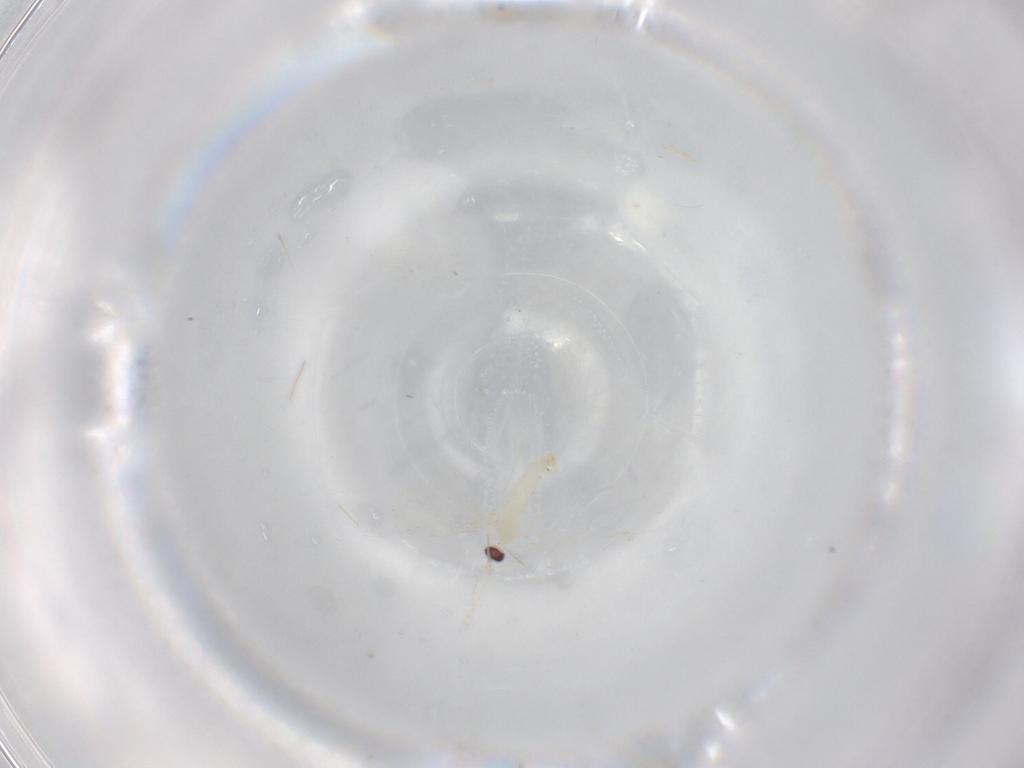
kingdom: Animalia
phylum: Arthropoda
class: Insecta
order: Diptera
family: Cecidomyiidae
